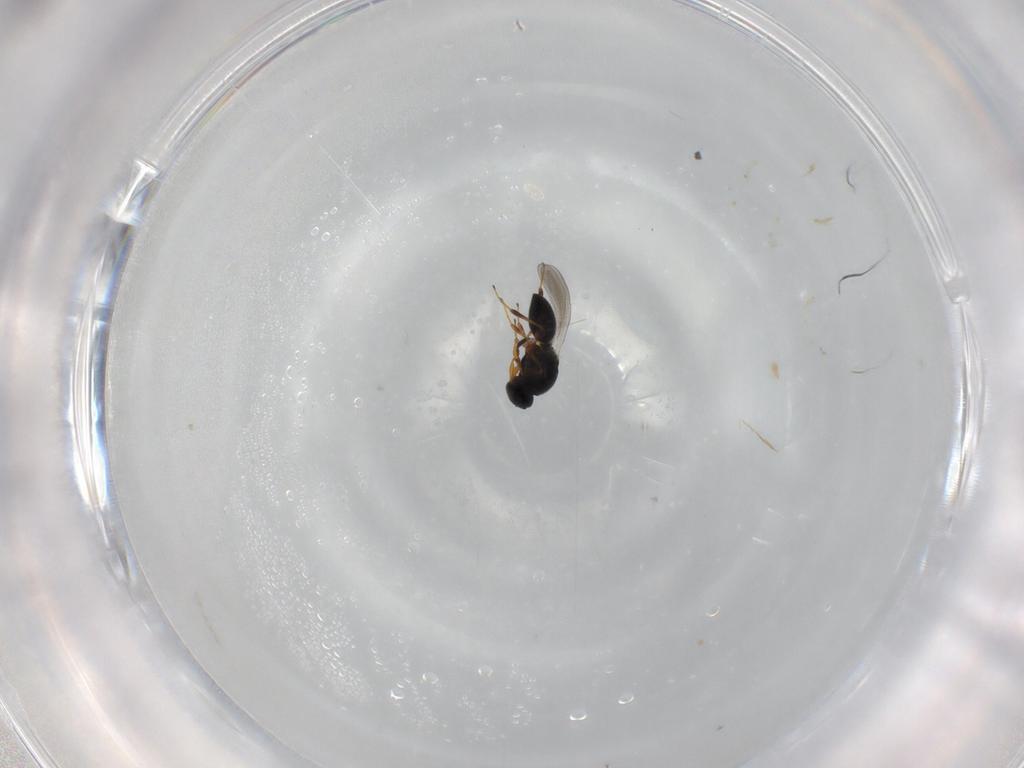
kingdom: Animalia
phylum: Arthropoda
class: Insecta
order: Hymenoptera
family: Platygastridae
